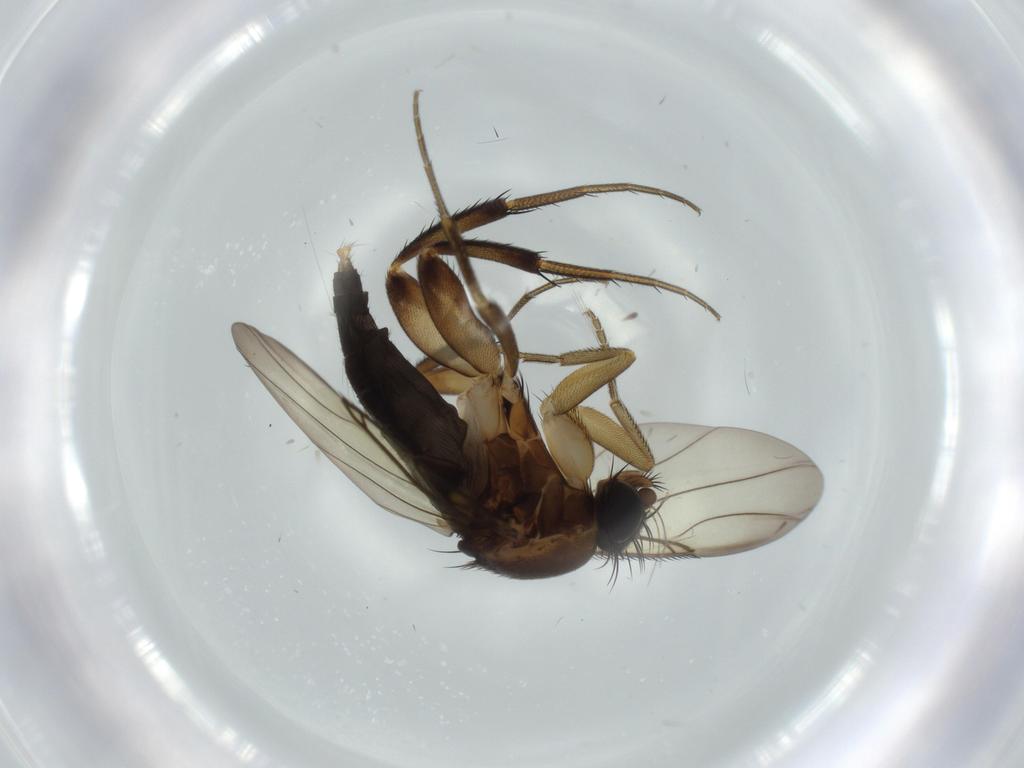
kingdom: Animalia
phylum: Arthropoda
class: Insecta
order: Diptera
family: Phoridae
